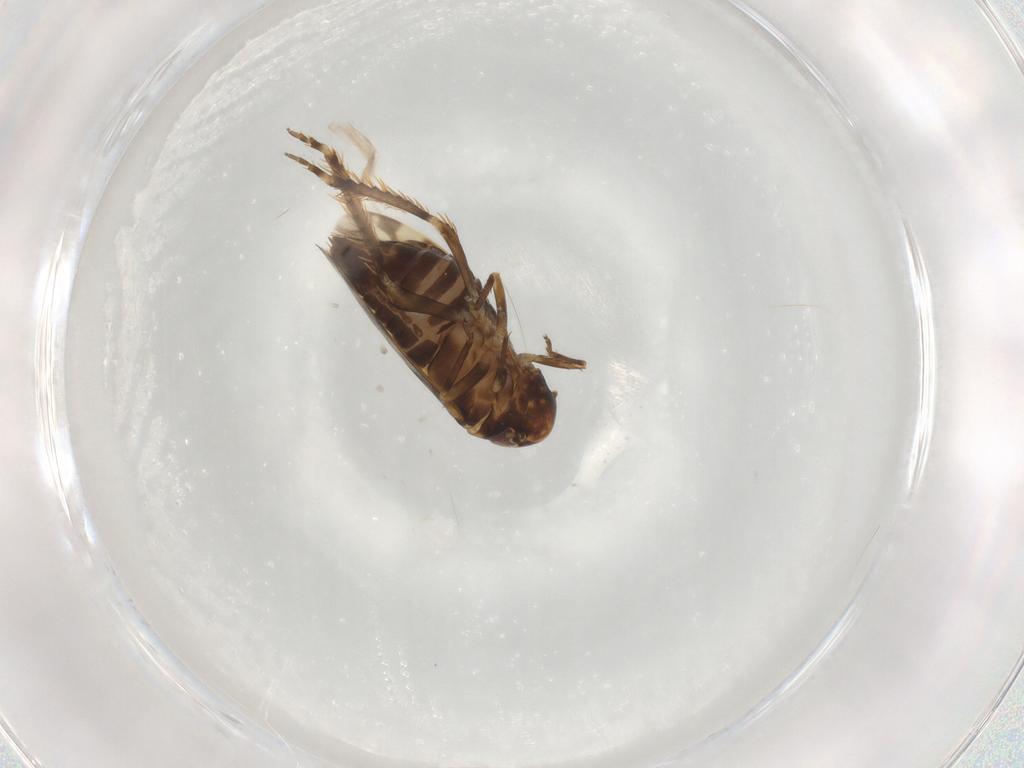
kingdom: Animalia
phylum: Arthropoda
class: Insecta
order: Hemiptera
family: Cicadellidae
